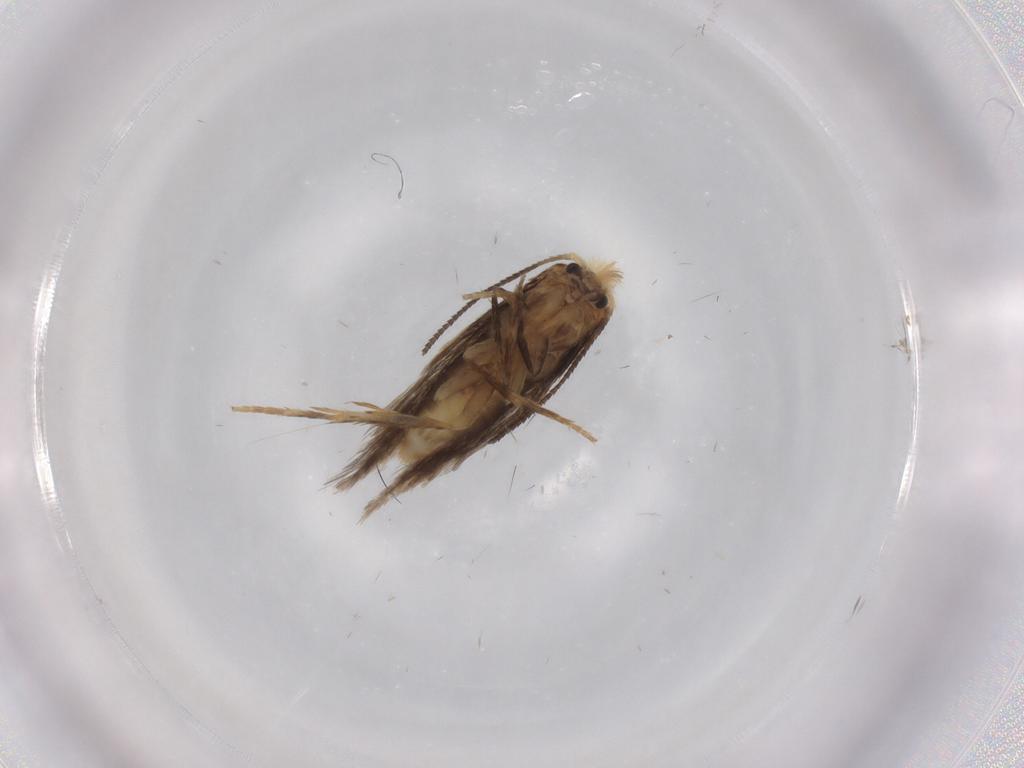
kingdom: Animalia
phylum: Arthropoda
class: Insecta
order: Lepidoptera
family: Nepticulidae
